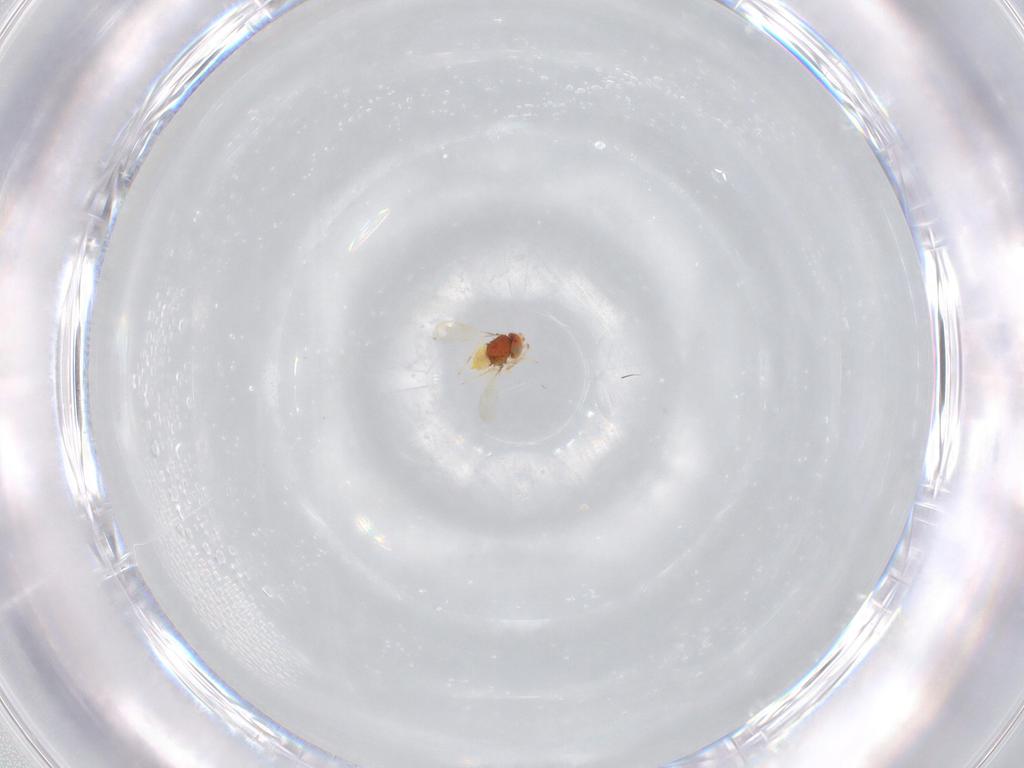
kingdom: Animalia
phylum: Arthropoda
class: Insecta
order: Hymenoptera
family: Aphelinidae
